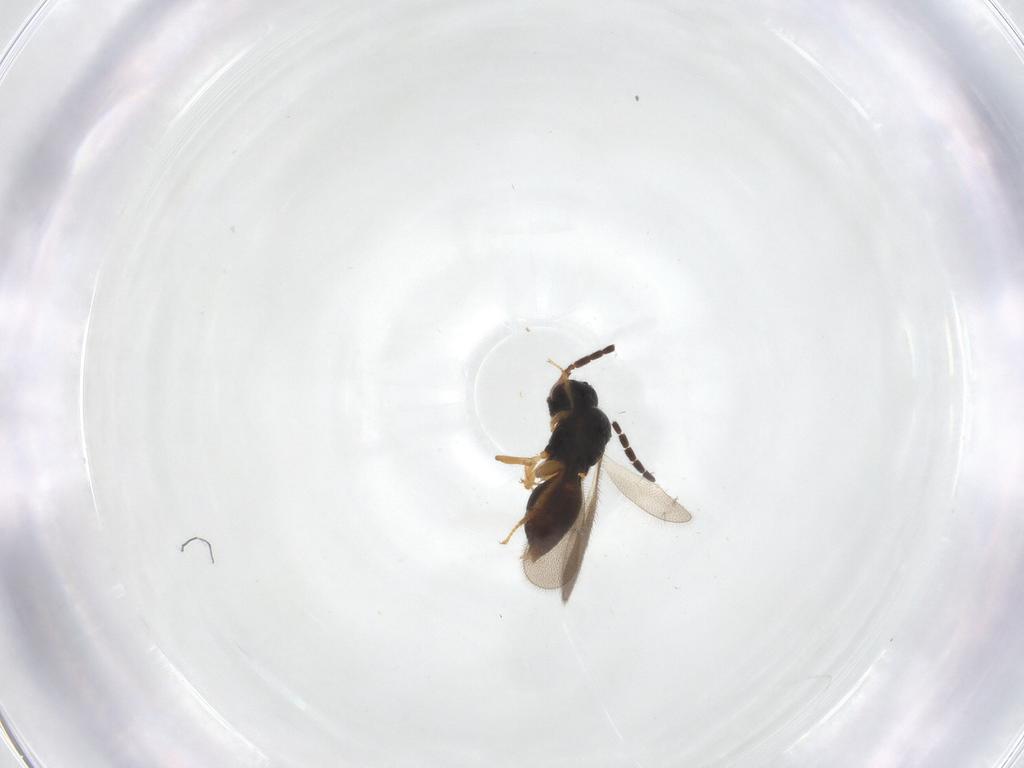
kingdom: Animalia
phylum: Arthropoda
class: Insecta
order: Hymenoptera
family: Ceraphronidae
